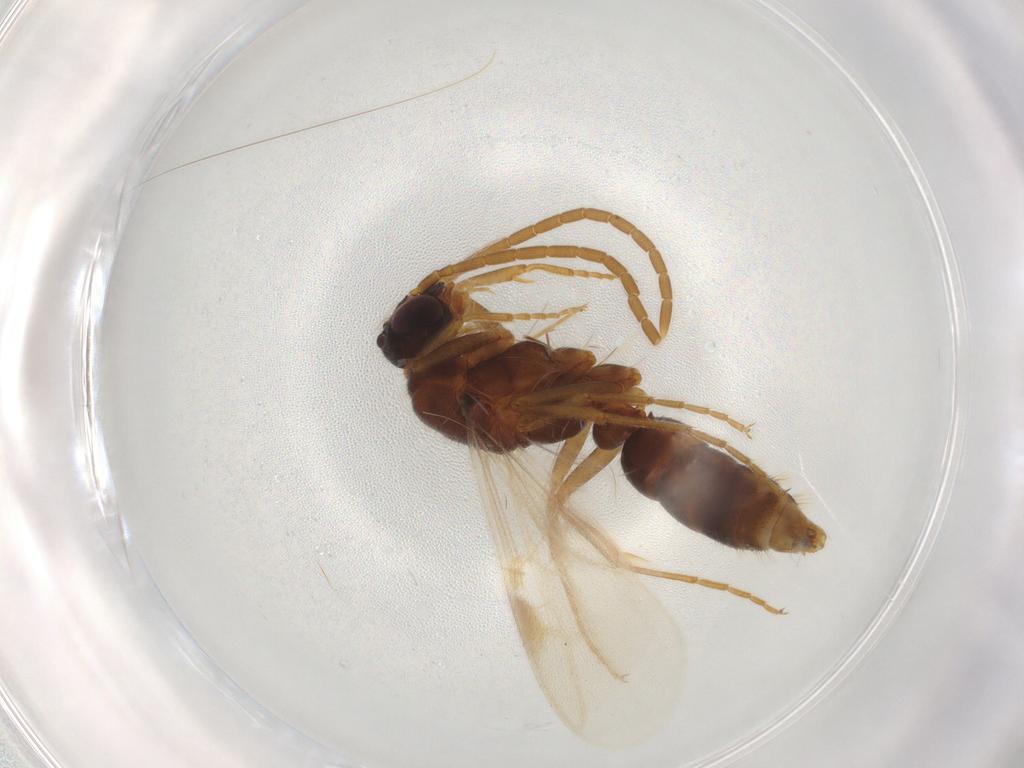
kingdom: Animalia
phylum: Arthropoda
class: Insecta
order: Hymenoptera
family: Formicidae
